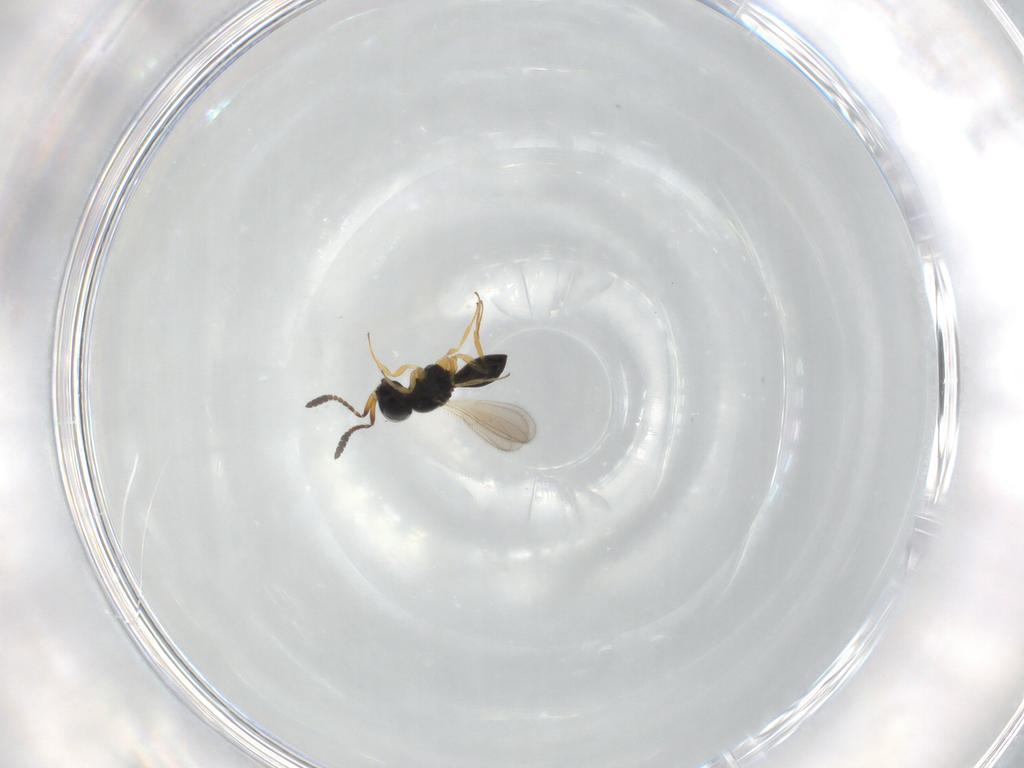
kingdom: Animalia
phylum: Arthropoda
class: Insecta
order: Hymenoptera
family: Scelionidae
